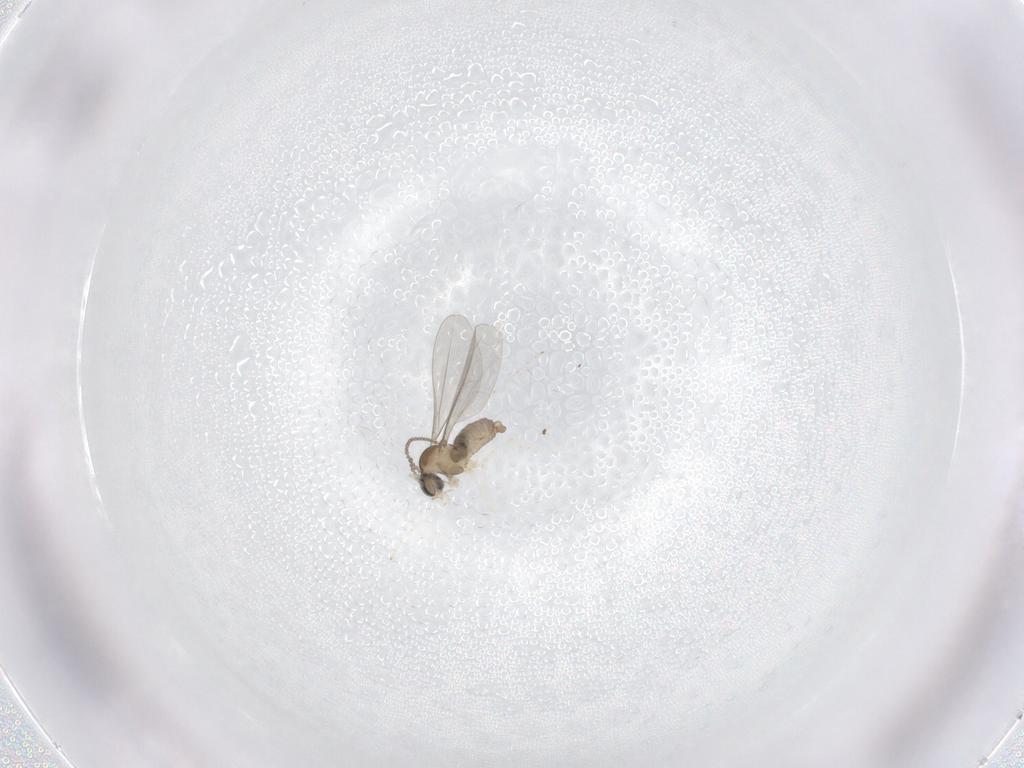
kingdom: Animalia
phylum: Arthropoda
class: Insecta
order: Diptera
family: Cecidomyiidae
